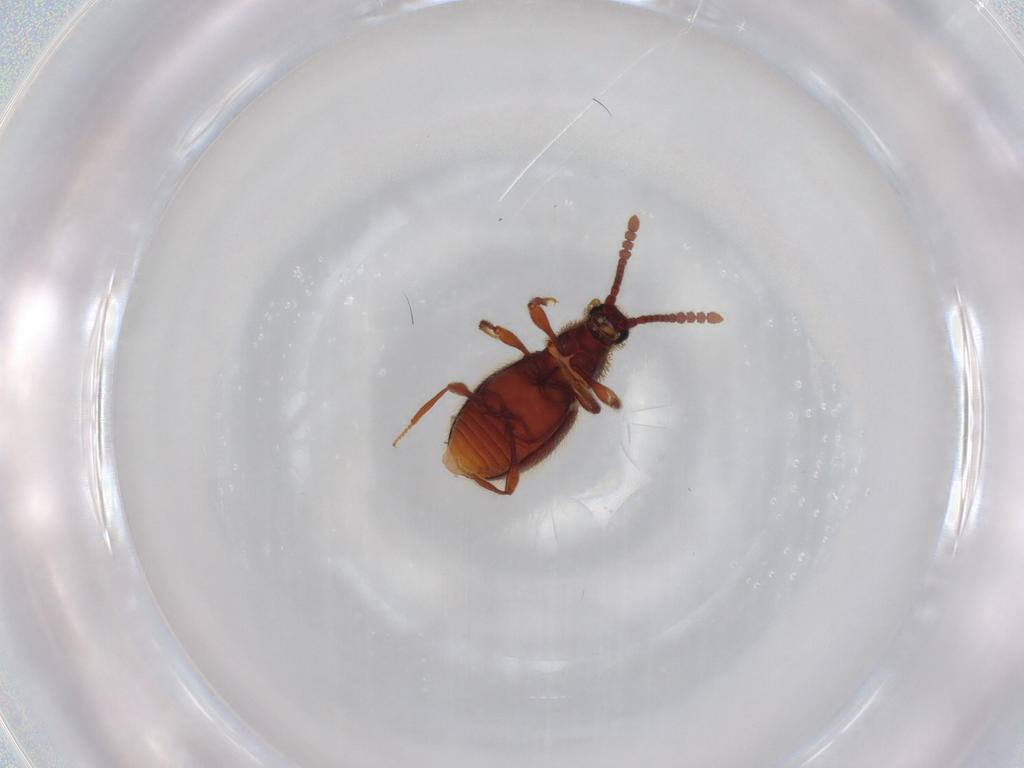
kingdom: Animalia
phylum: Arthropoda
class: Insecta
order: Coleoptera
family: Staphylinidae
